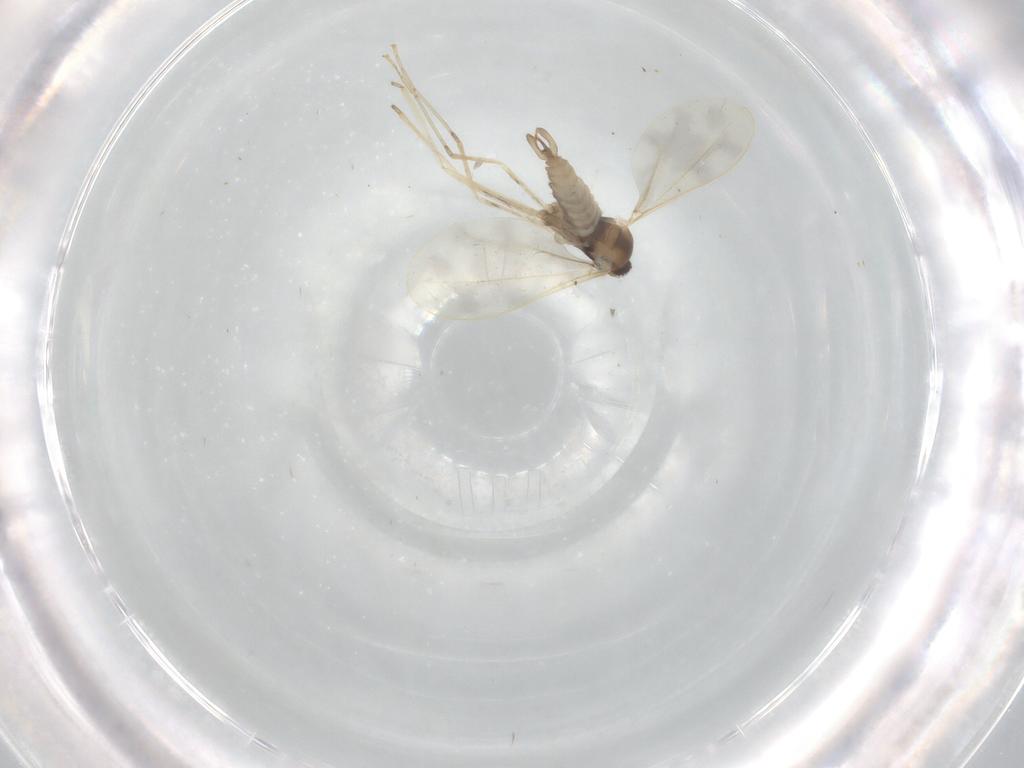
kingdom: Animalia
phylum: Arthropoda
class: Insecta
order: Diptera
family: Cecidomyiidae
